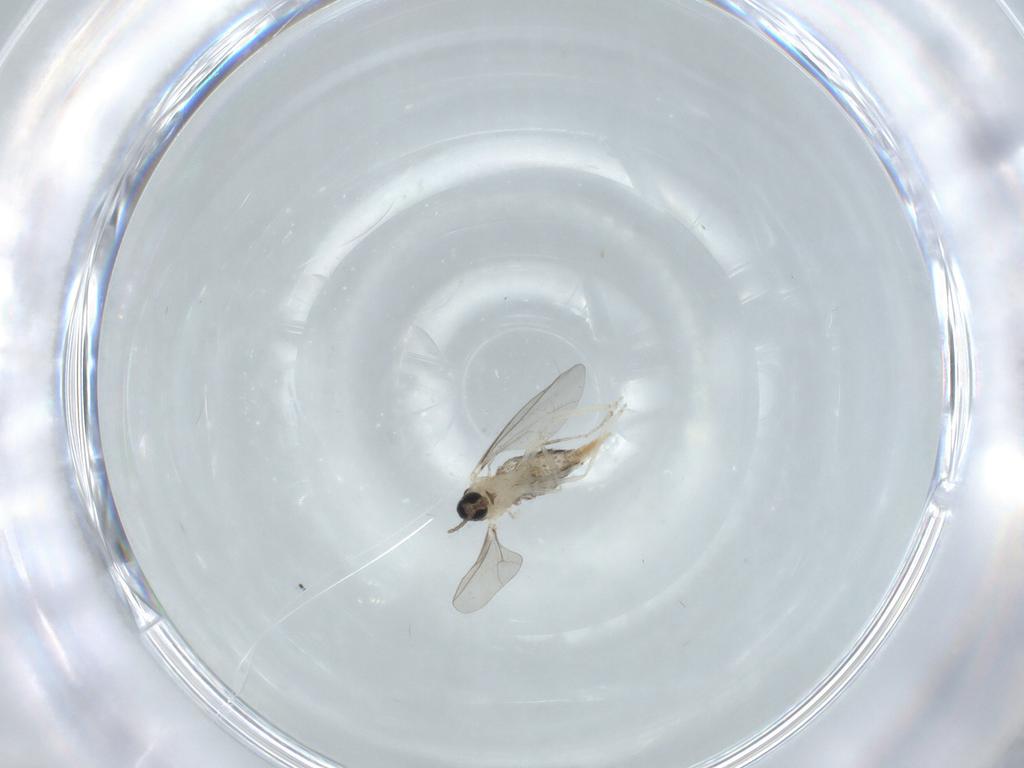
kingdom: Animalia
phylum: Arthropoda
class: Insecta
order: Diptera
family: Cecidomyiidae
